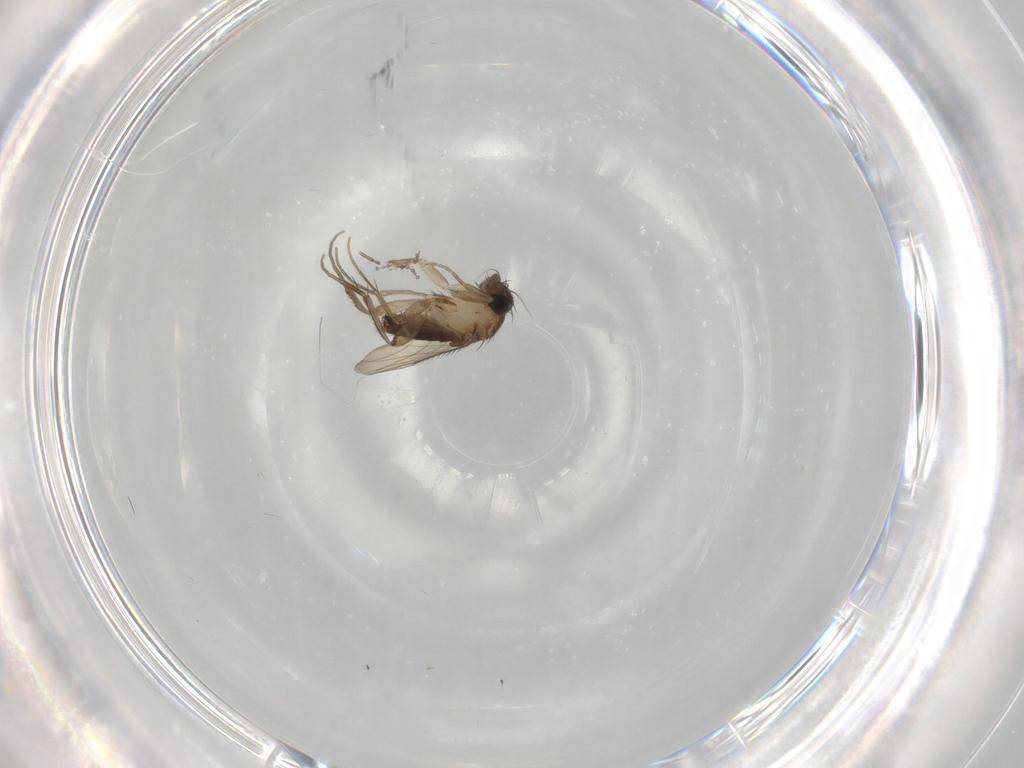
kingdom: Animalia
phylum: Arthropoda
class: Insecta
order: Diptera
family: Phoridae
